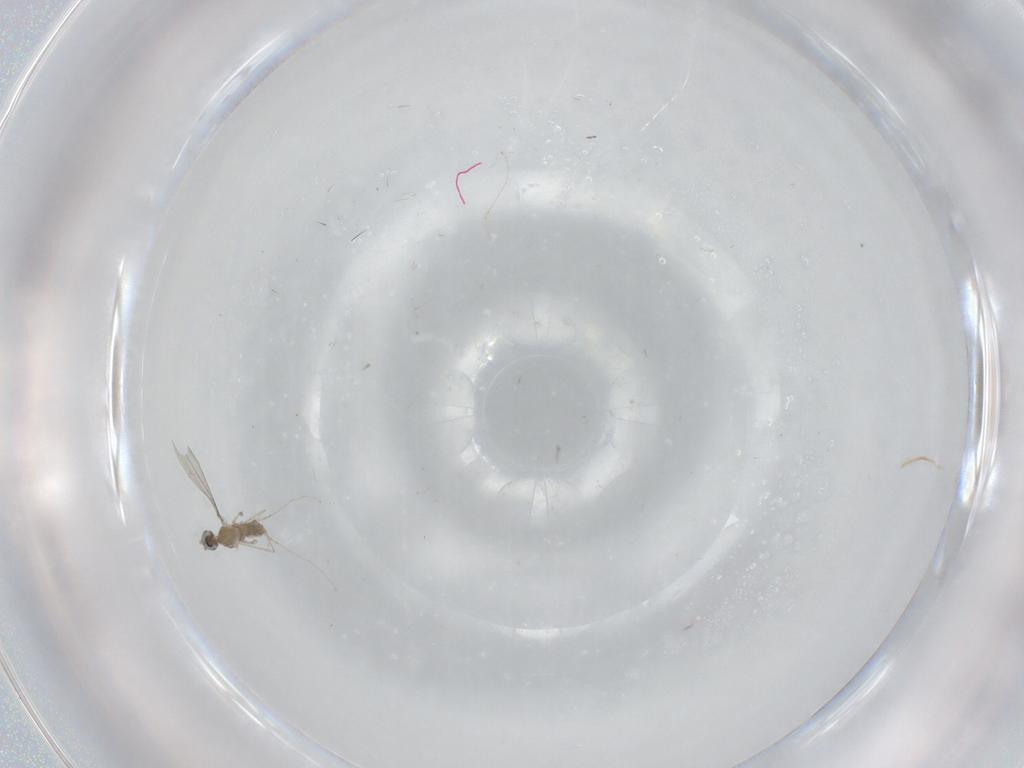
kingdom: Animalia
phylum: Arthropoda
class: Insecta
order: Diptera
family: Cecidomyiidae
